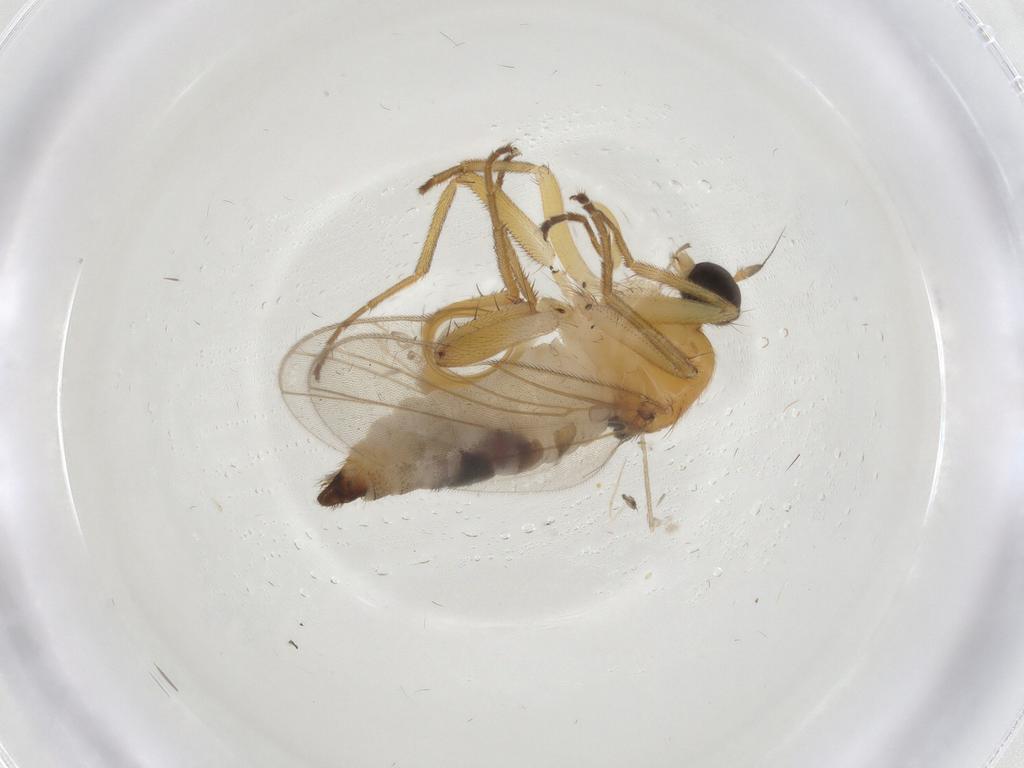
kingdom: Animalia
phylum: Arthropoda
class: Insecta
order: Diptera
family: Hybotidae
